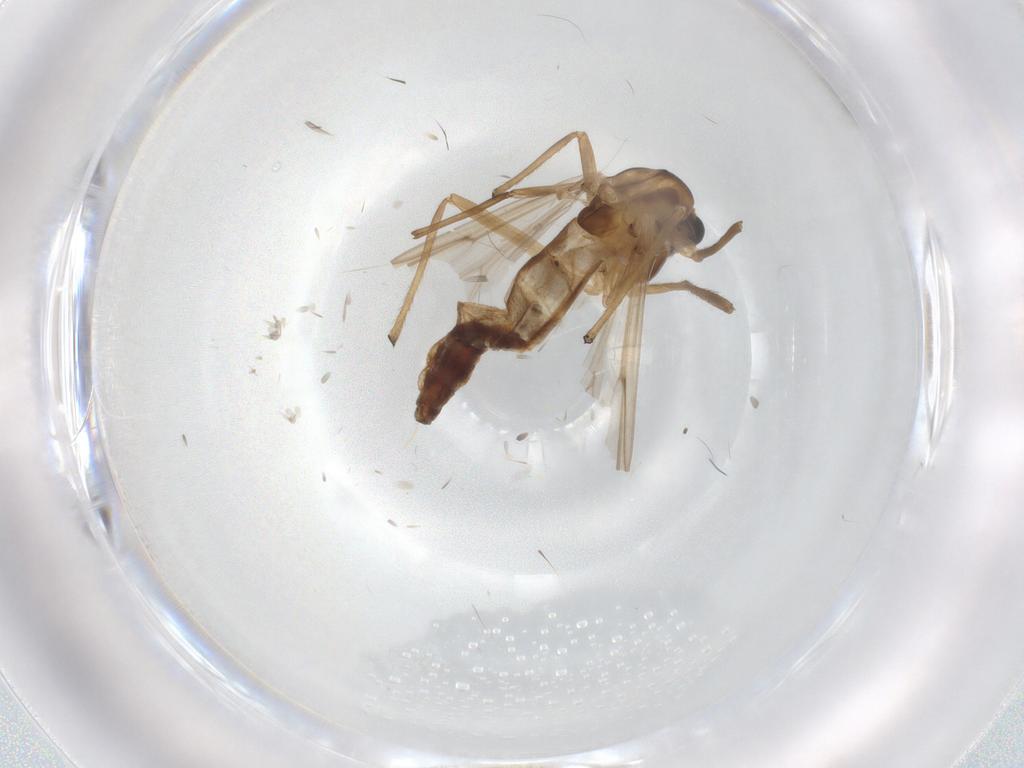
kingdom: Animalia
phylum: Arthropoda
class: Insecta
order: Diptera
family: Chironomidae
